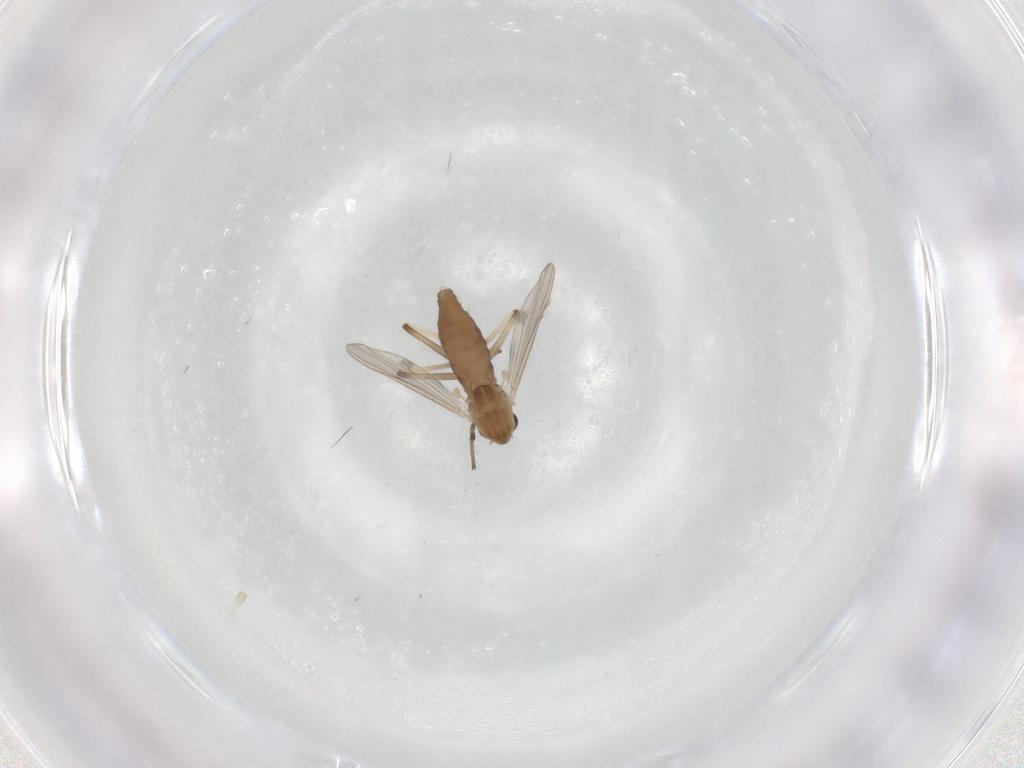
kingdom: Animalia
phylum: Arthropoda
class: Insecta
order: Diptera
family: Chironomidae
